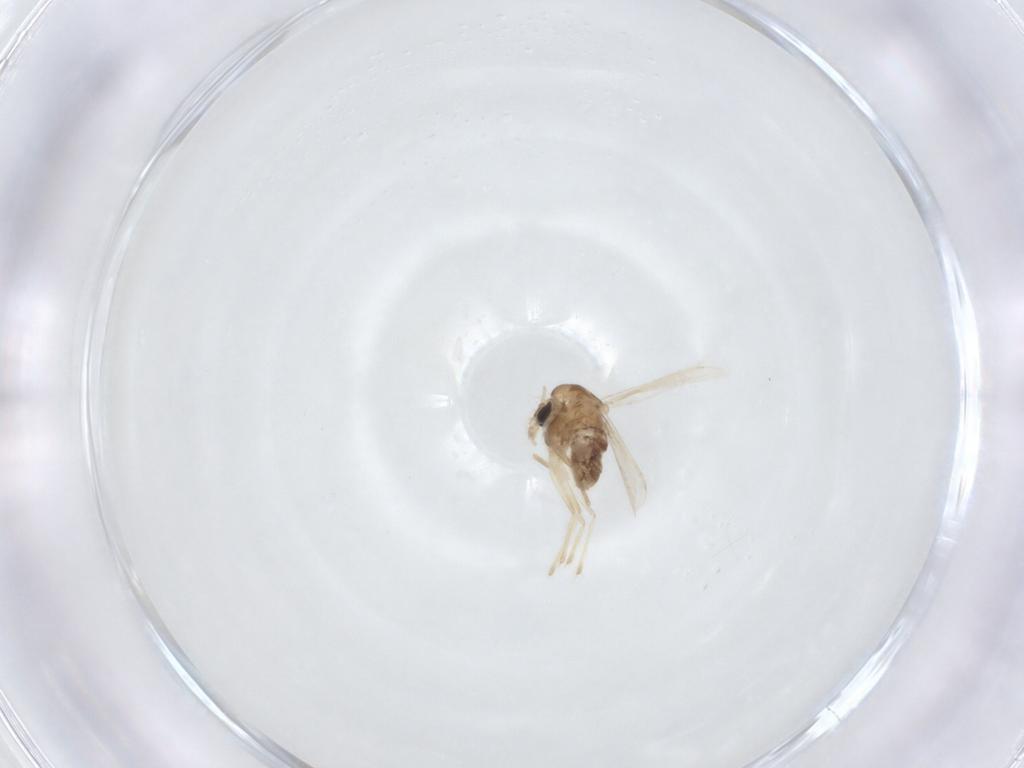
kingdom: Animalia
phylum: Arthropoda
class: Insecta
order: Diptera
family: Chironomidae
